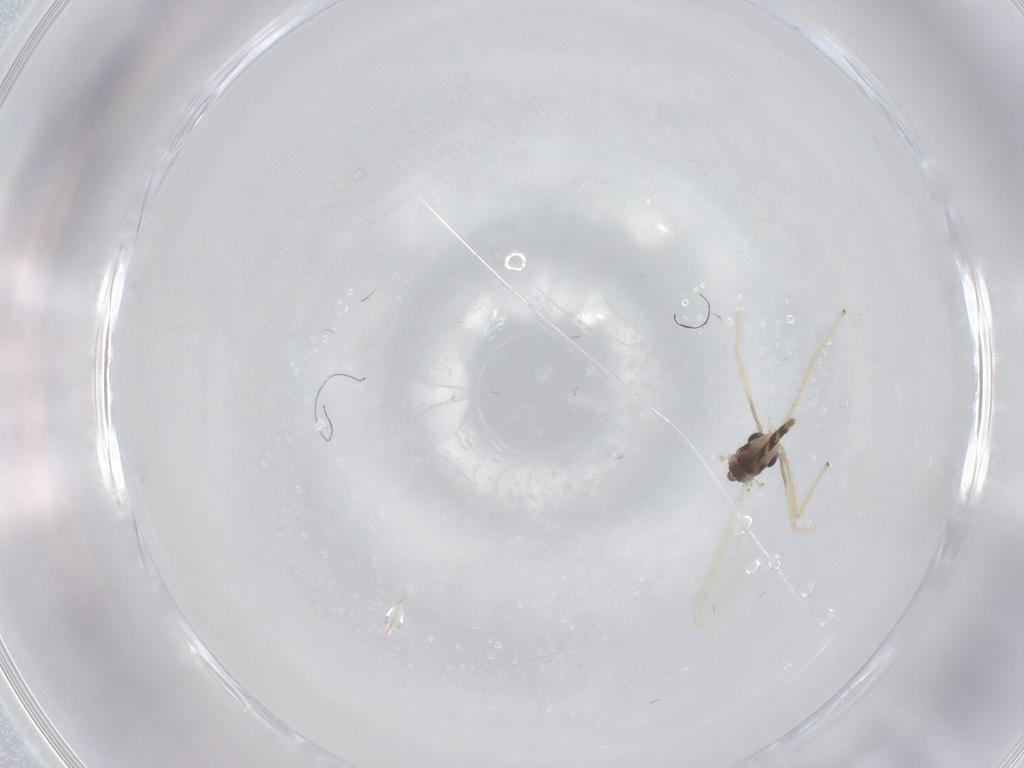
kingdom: Animalia
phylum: Arthropoda
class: Insecta
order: Diptera
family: Chironomidae
